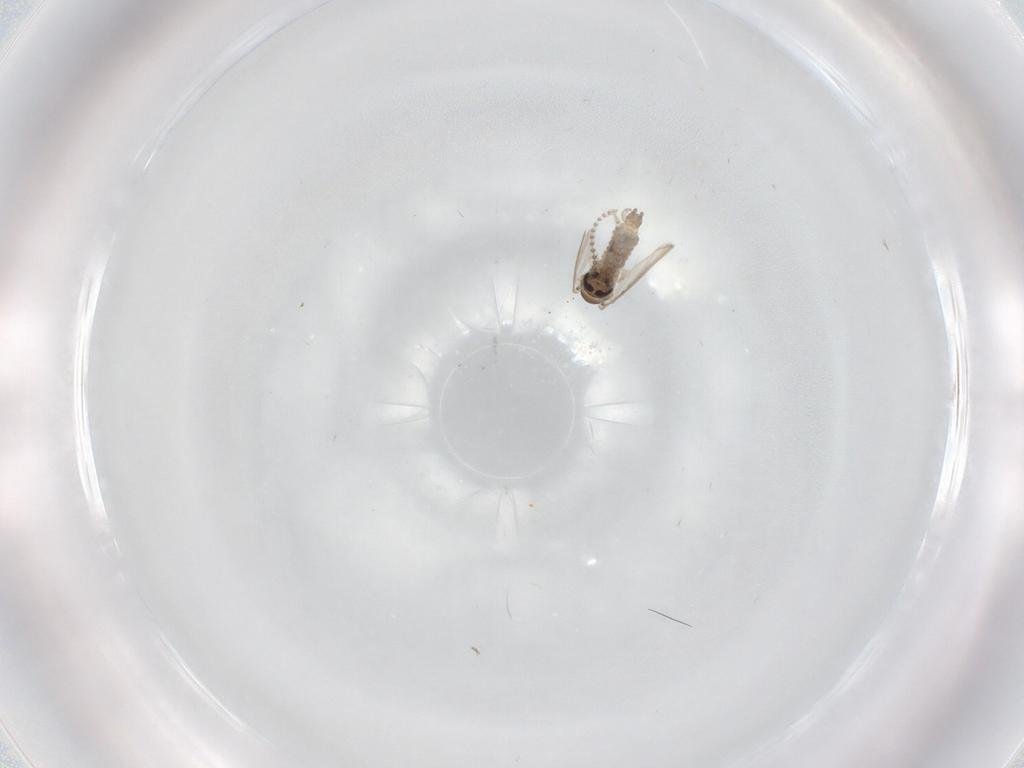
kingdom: Animalia
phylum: Arthropoda
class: Insecta
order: Diptera
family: Psychodidae
